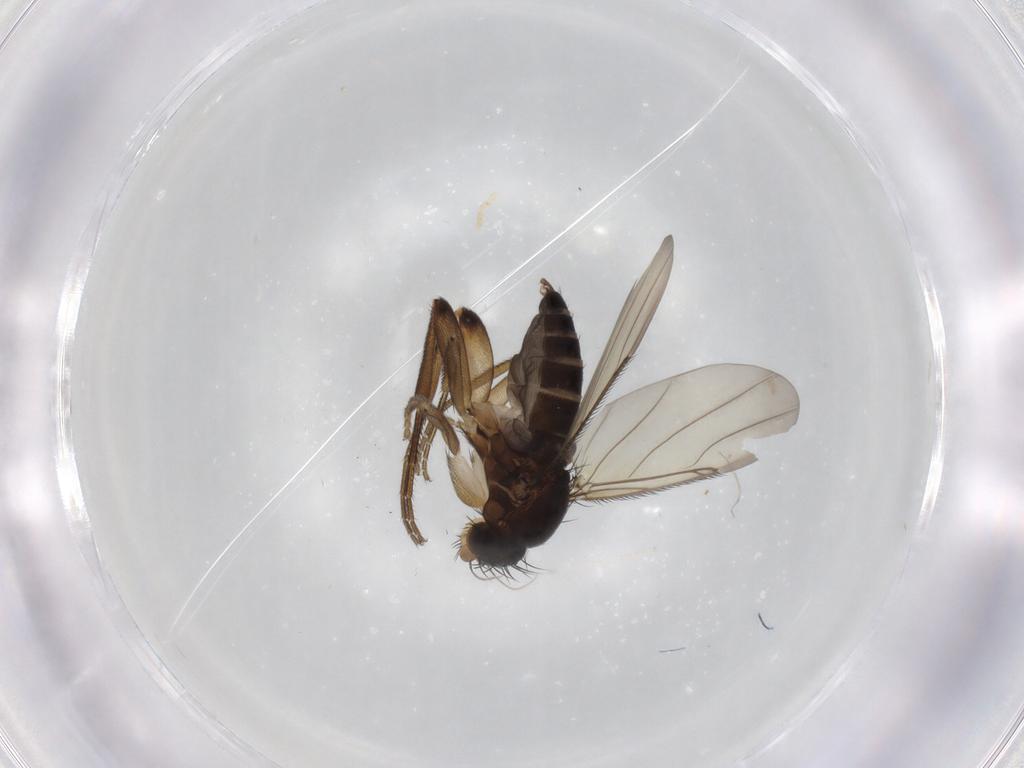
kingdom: Animalia
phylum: Arthropoda
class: Insecta
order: Diptera
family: Phoridae
